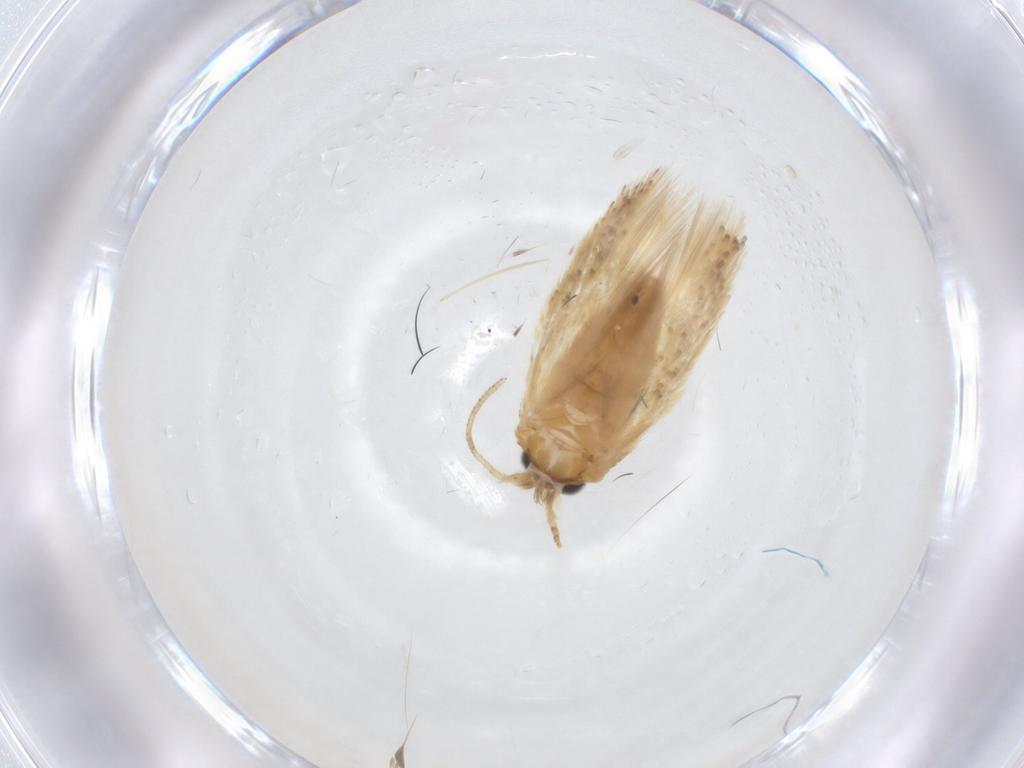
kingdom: Animalia
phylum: Arthropoda
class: Insecta
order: Lepidoptera
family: Nepticulidae
